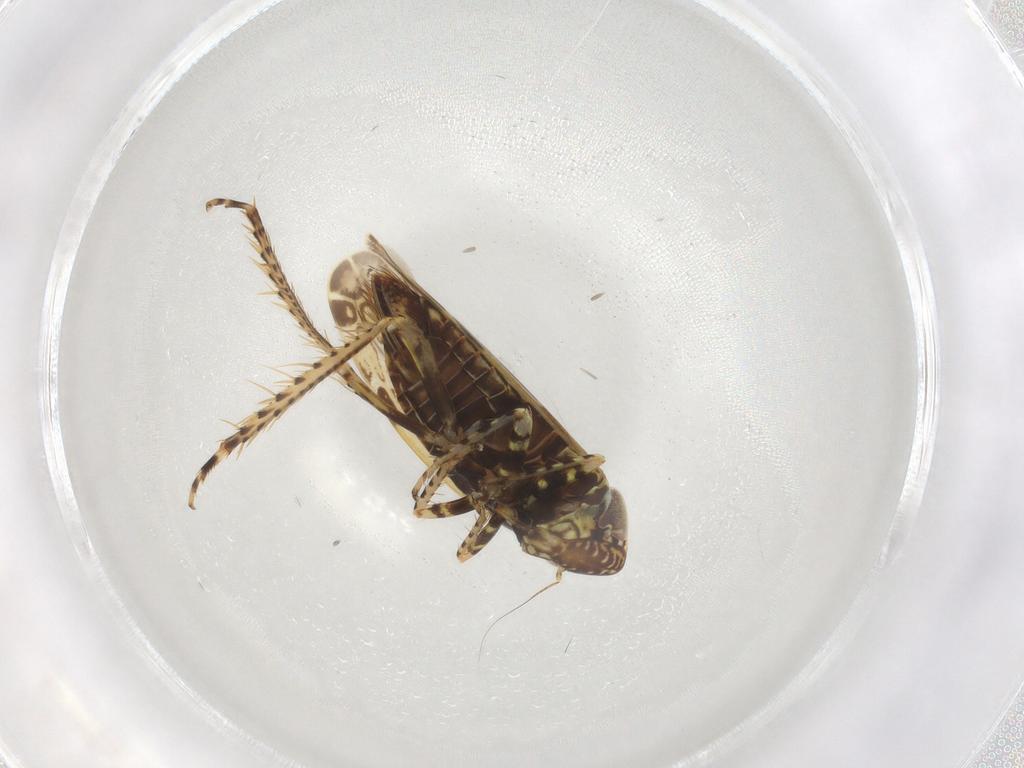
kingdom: Animalia
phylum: Arthropoda
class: Insecta
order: Hemiptera
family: Cicadellidae
